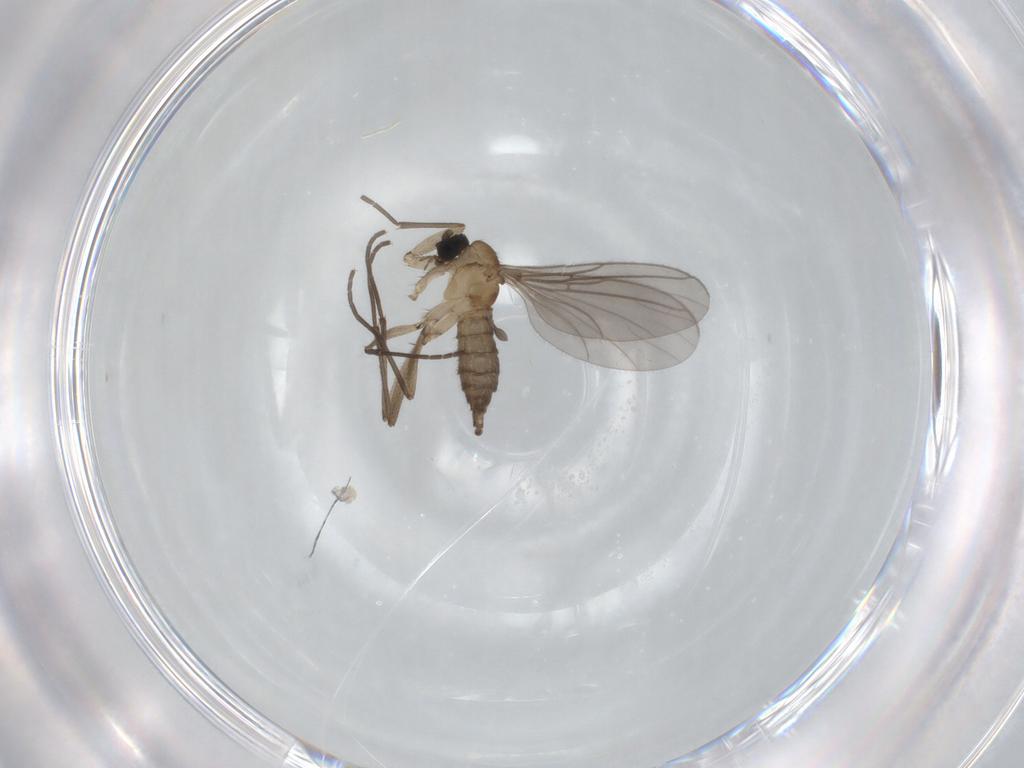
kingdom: Animalia
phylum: Arthropoda
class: Insecta
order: Diptera
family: Sciaridae
